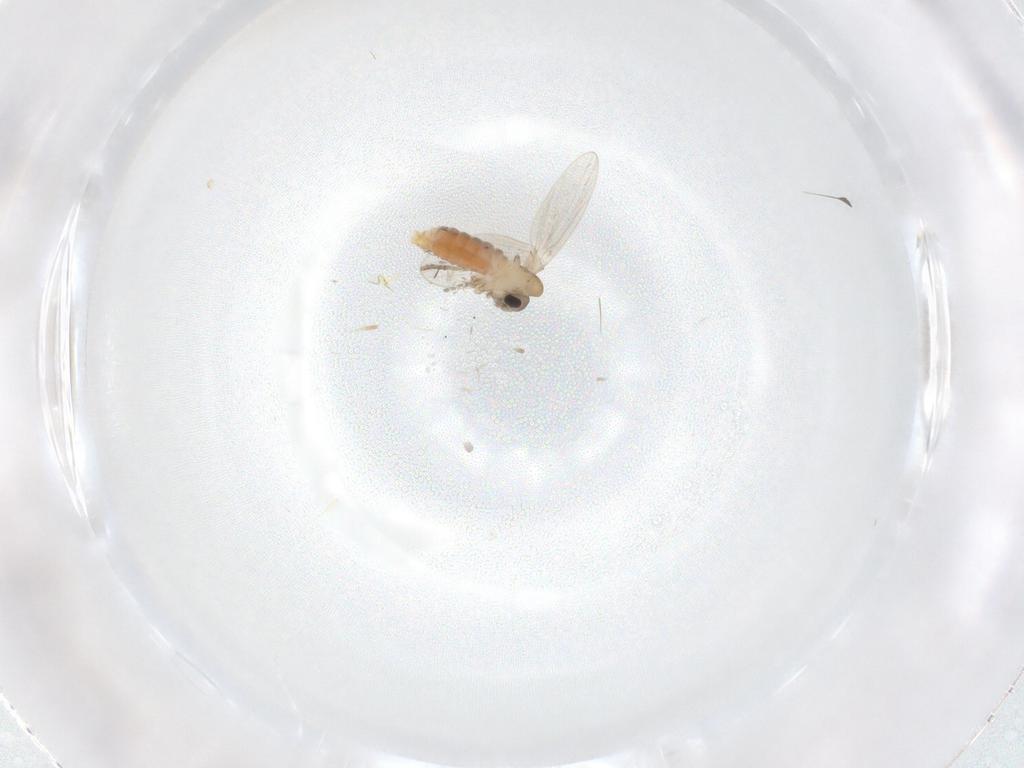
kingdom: Animalia
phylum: Arthropoda
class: Insecta
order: Diptera
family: Psychodidae
